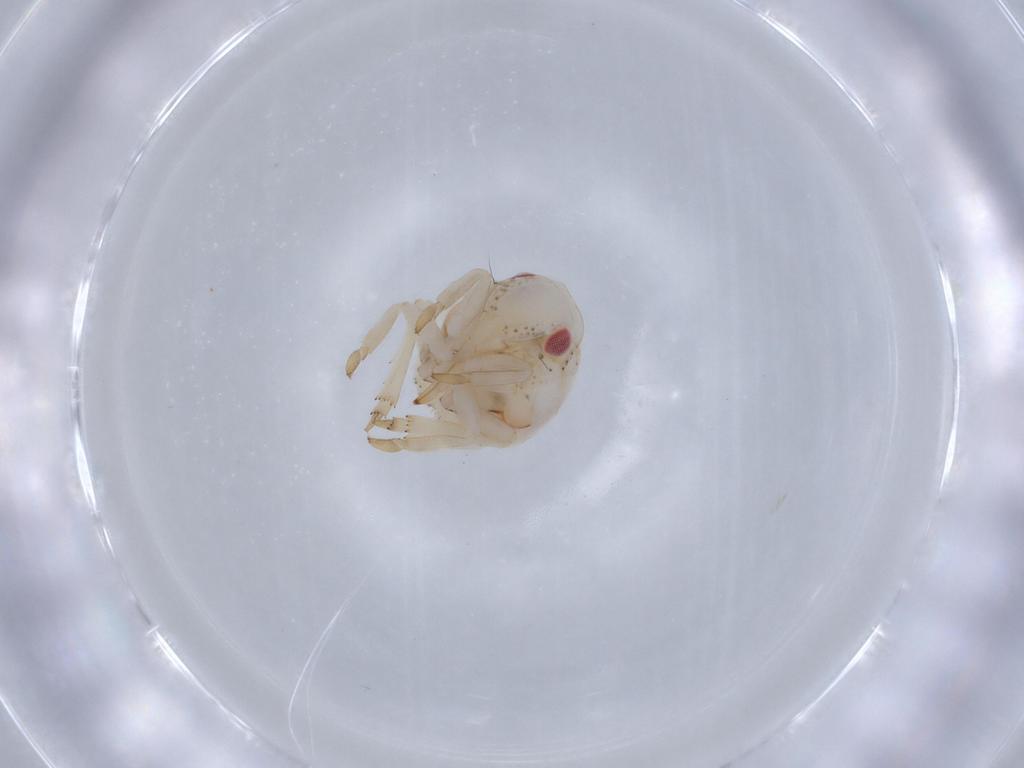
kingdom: Animalia
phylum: Arthropoda
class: Insecta
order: Hemiptera
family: Acanaloniidae
